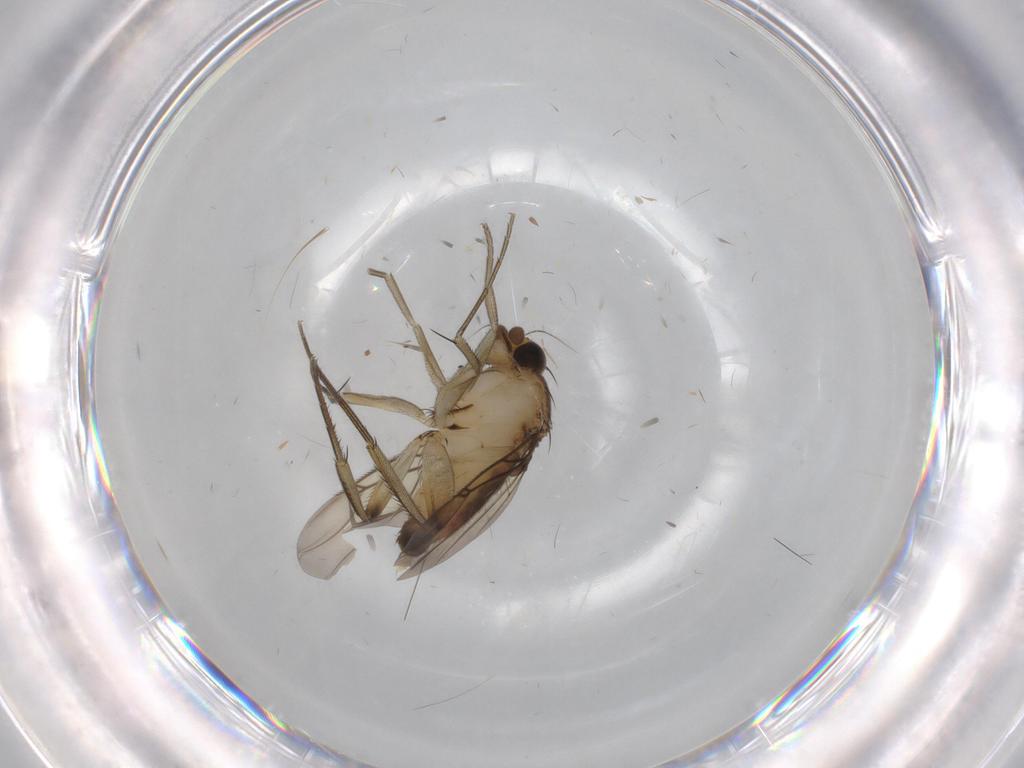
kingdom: Animalia
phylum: Arthropoda
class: Insecta
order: Diptera
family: Phoridae
